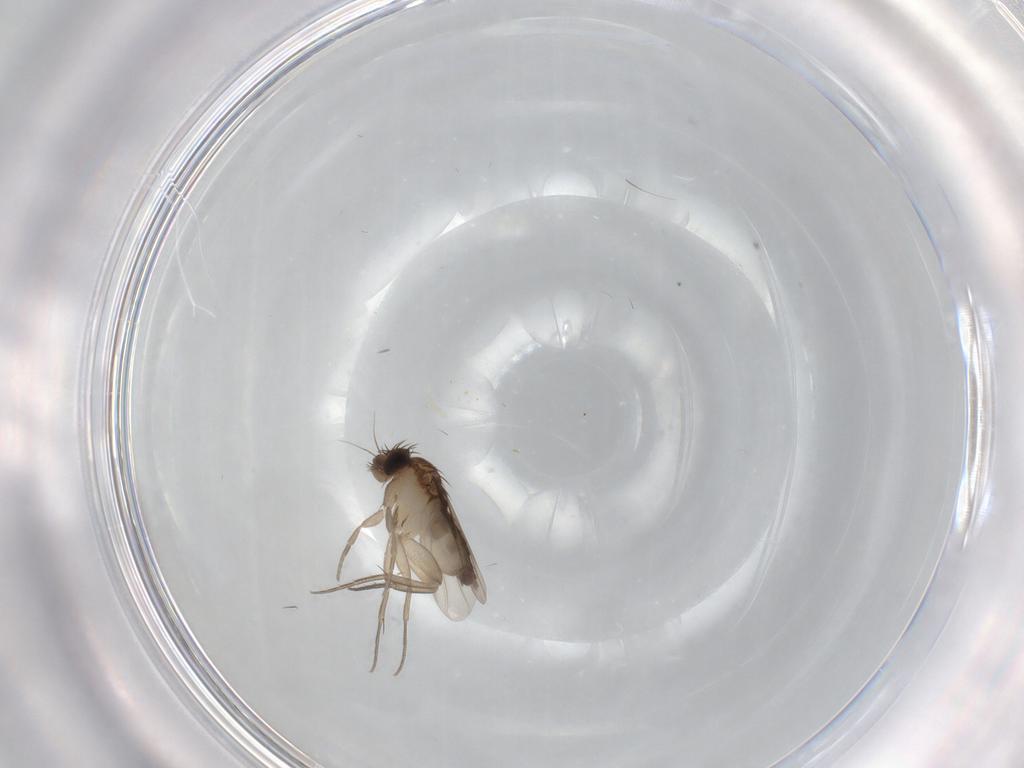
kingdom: Animalia
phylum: Arthropoda
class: Insecta
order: Diptera
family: Phoridae
